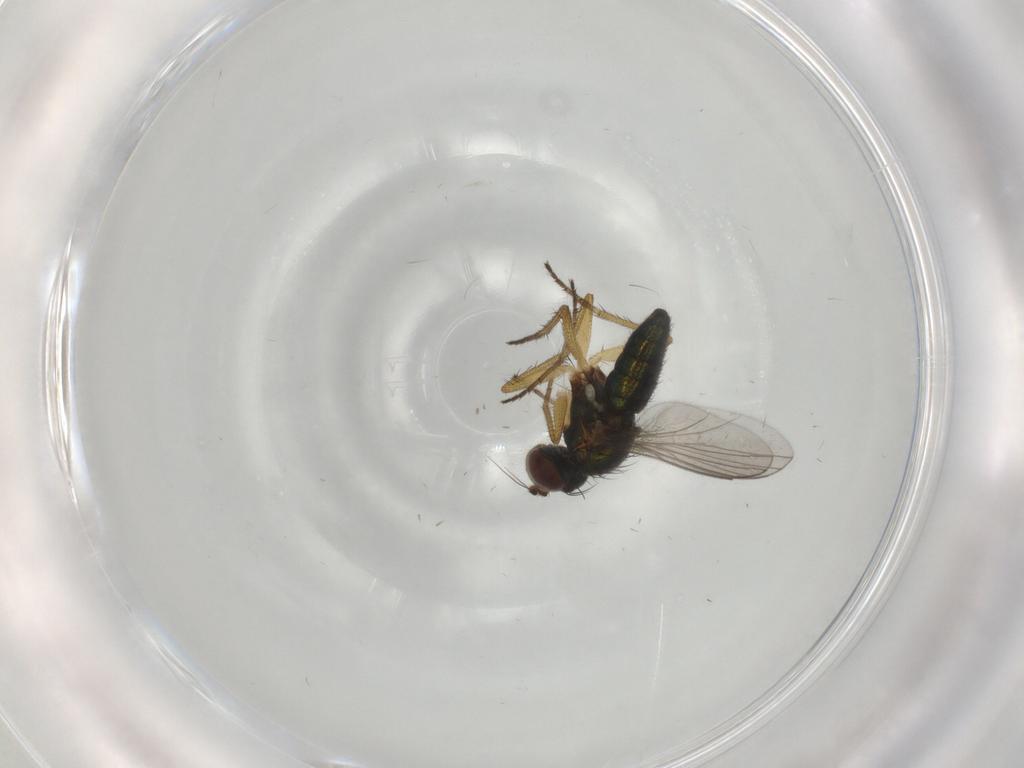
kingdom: Animalia
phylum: Arthropoda
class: Insecta
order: Diptera
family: Dolichopodidae
